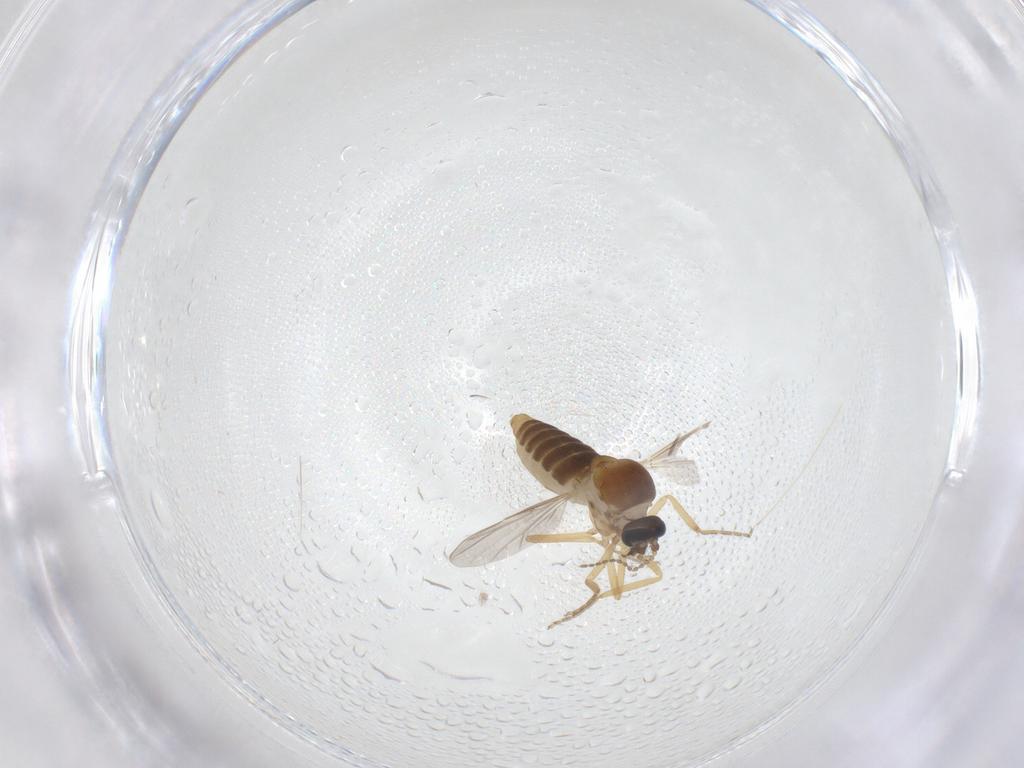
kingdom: Animalia
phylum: Arthropoda
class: Insecta
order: Diptera
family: Ceratopogonidae
